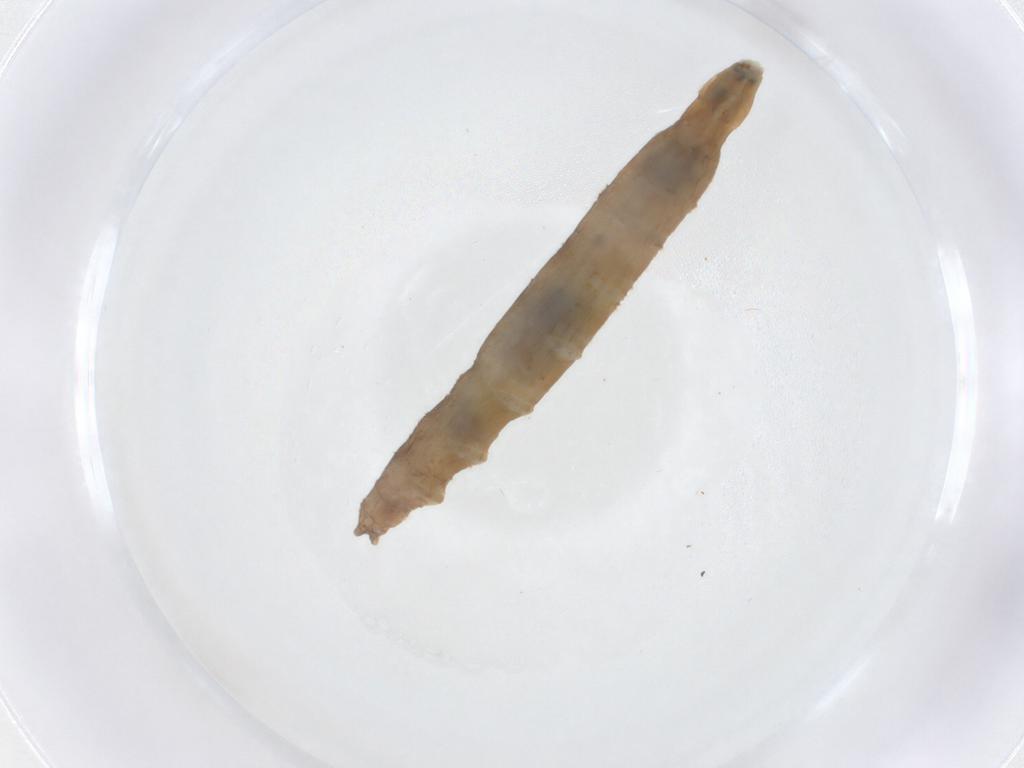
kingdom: Animalia
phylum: Arthropoda
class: Insecta
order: Diptera
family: Pediciidae
